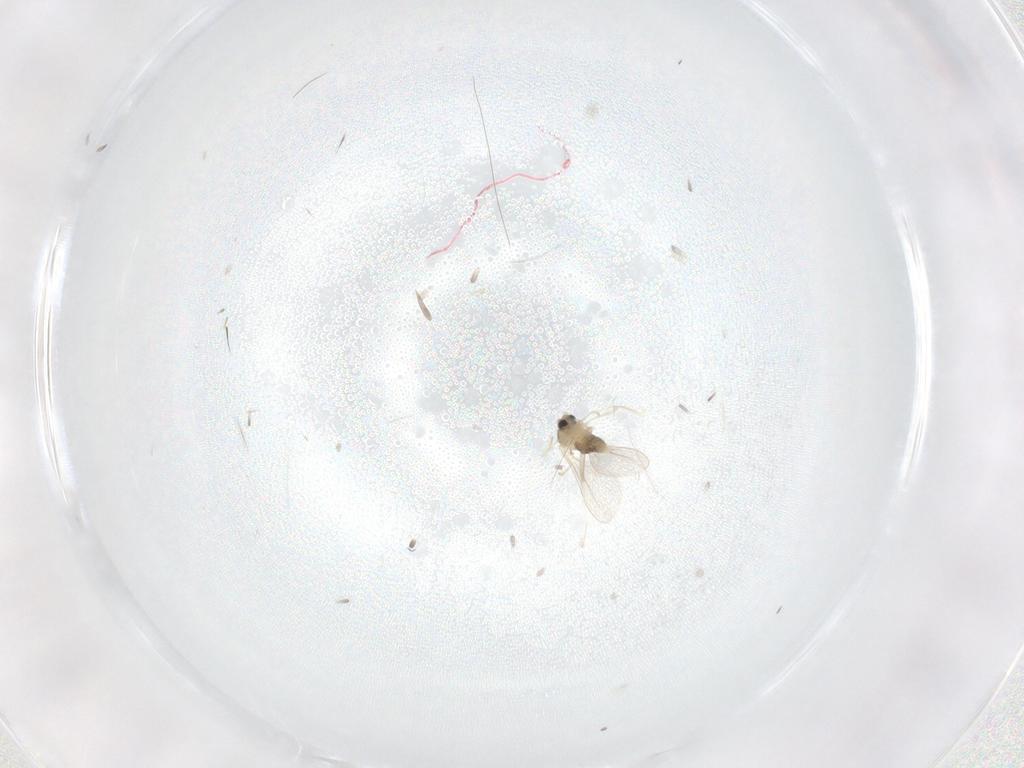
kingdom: Animalia
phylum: Arthropoda
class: Insecta
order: Diptera
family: Cecidomyiidae
